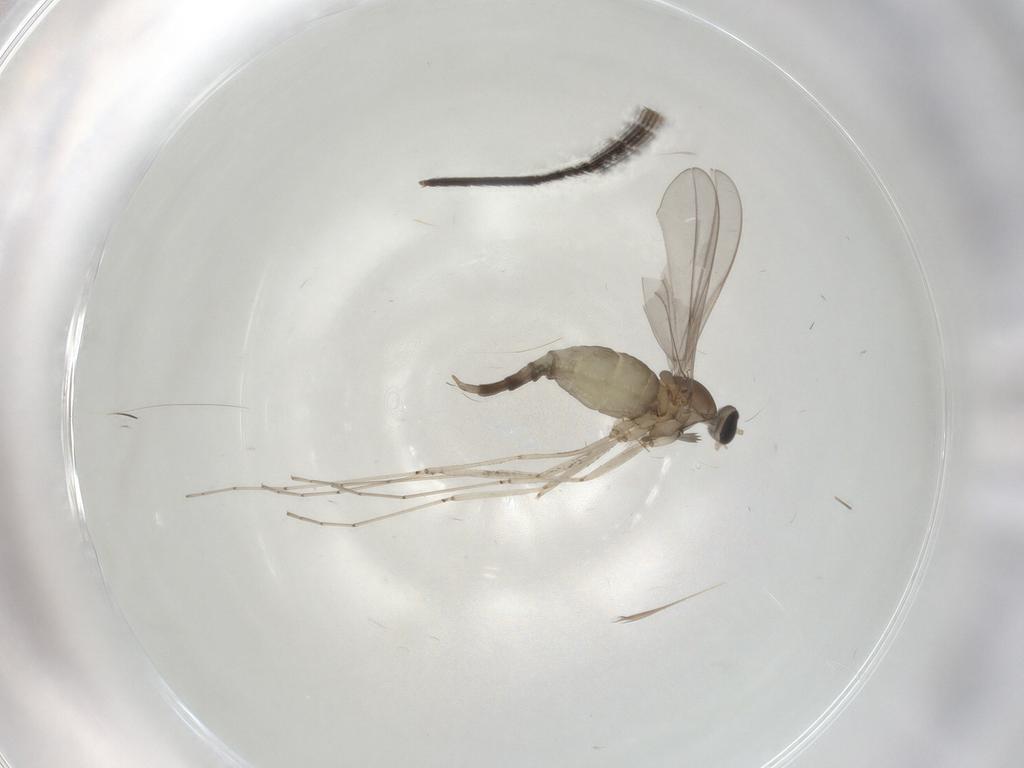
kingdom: Animalia
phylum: Arthropoda
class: Insecta
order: Diptera
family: Cecidomyiidae
